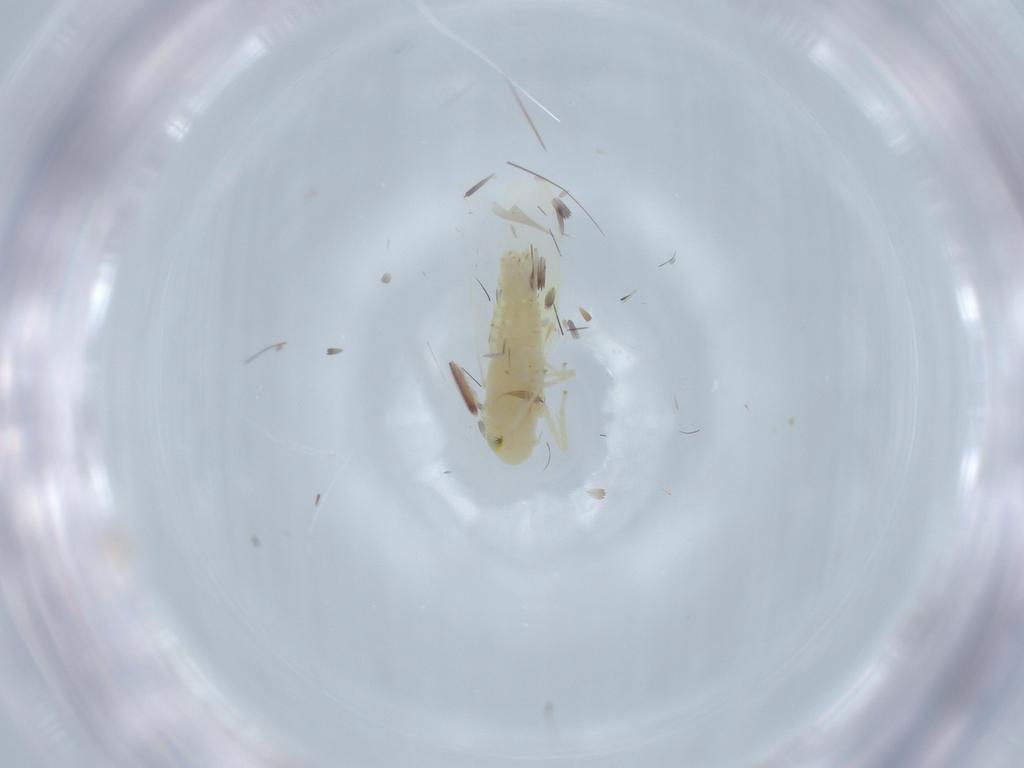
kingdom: Animalia
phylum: Arthropoda
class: Insecta
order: Hemiptera
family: Cicadellidae
